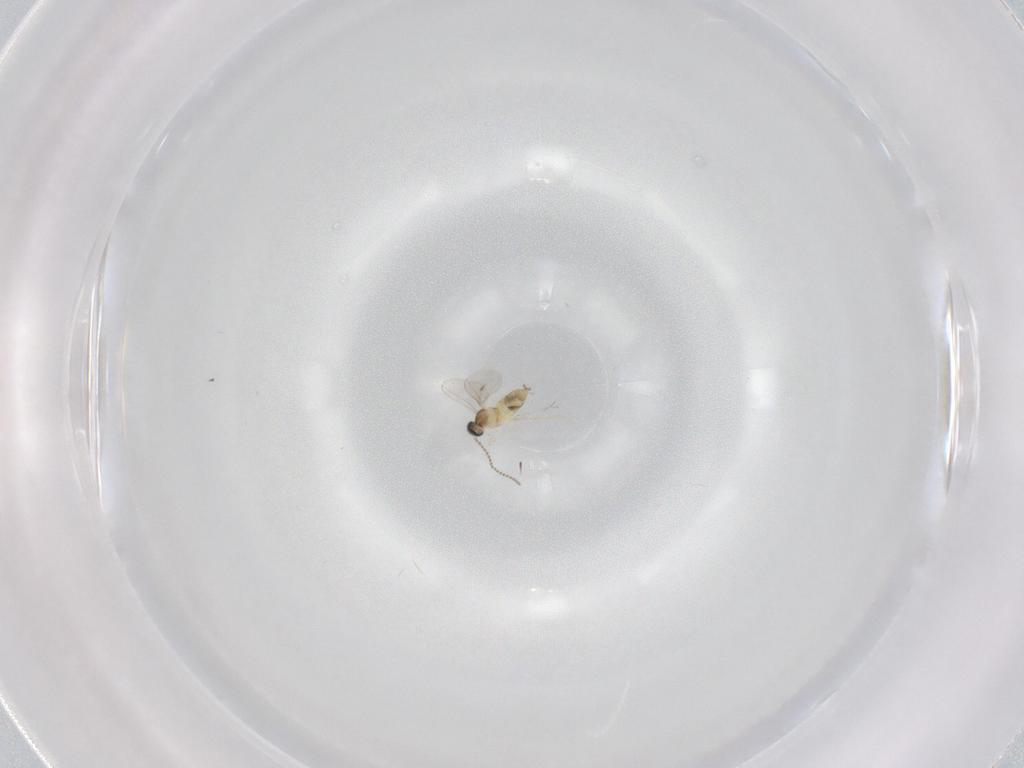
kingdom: Animalia
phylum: Arthropoda
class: Insecta
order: Diptera
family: Cecidomyiidae
